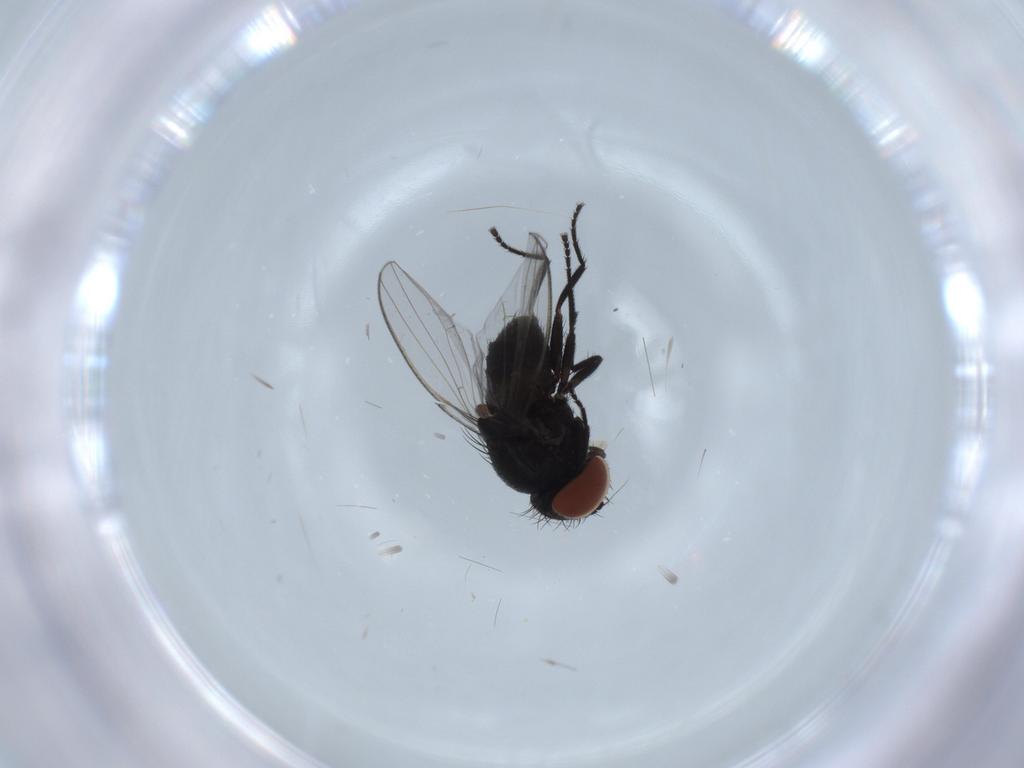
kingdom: Animalia
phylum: Arthropoda
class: Insecta
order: Diptera
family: Milichiidae
